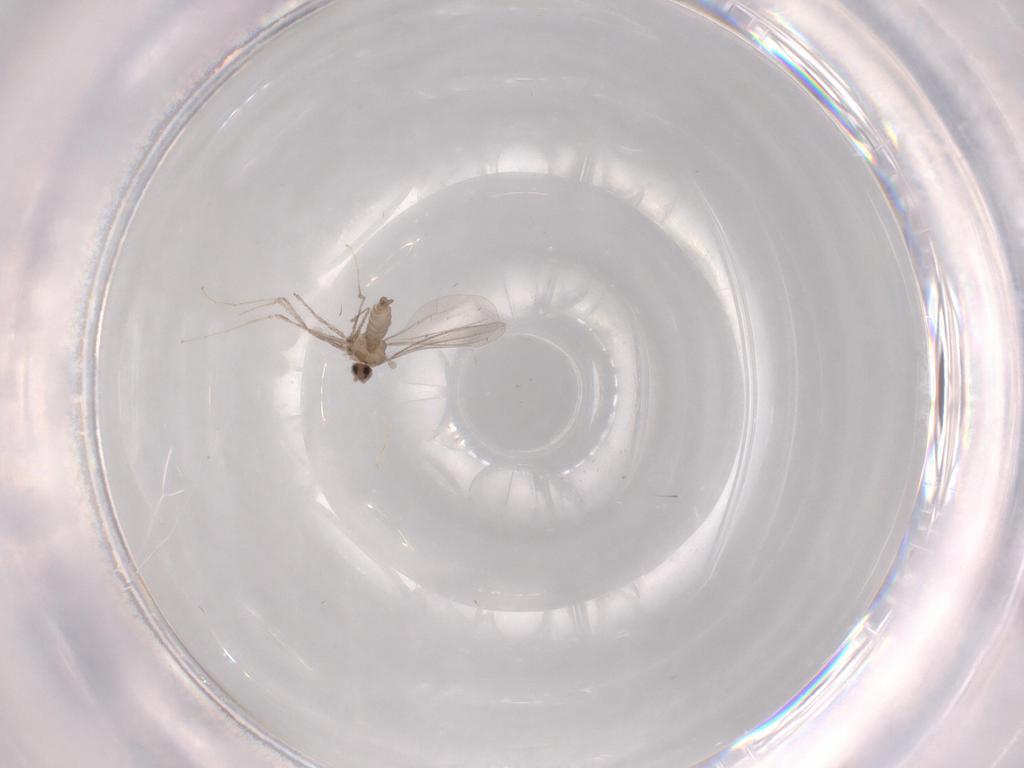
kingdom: Animalia
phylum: Arthropoda
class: Insecta
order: Diptera
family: Cecidomyiidae
